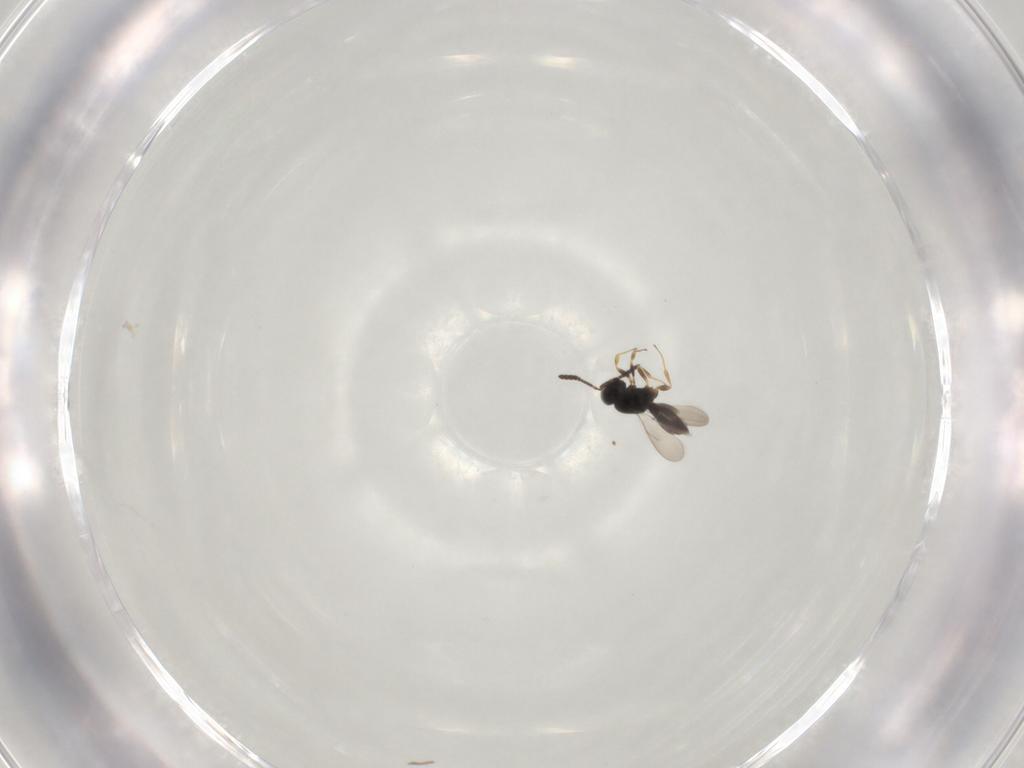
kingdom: Animalia
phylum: Arthropoda
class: Insecta
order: Hymenoptera
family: Scelionidae
